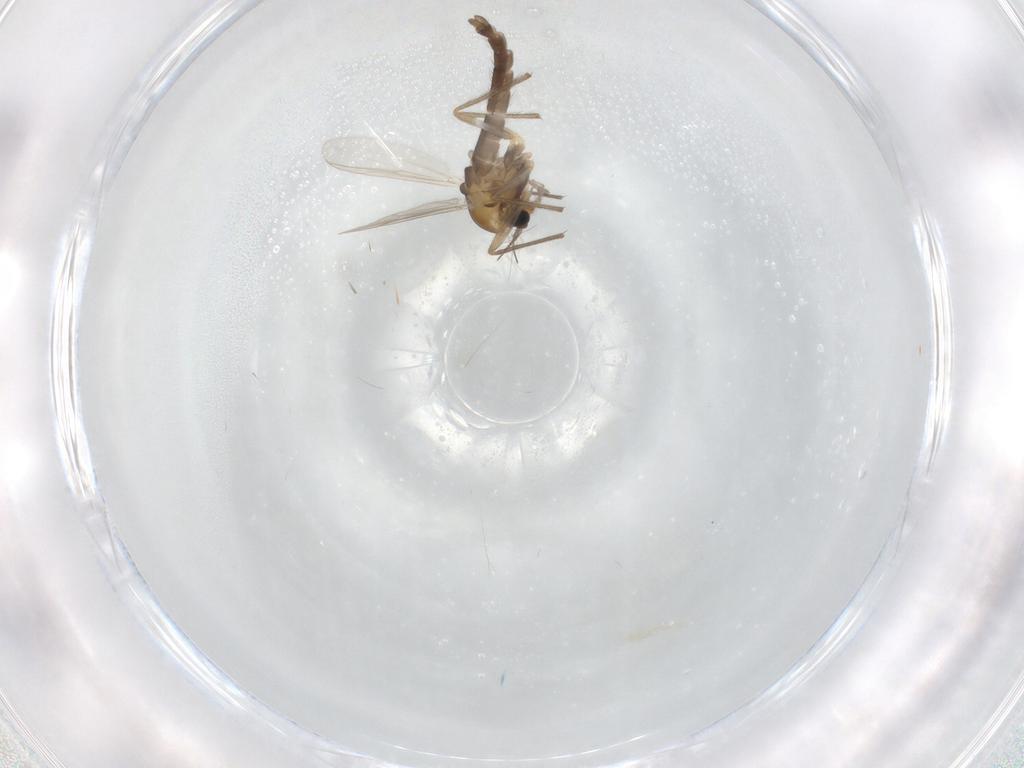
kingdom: Animalia
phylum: Arthropoda
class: Insecta
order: Diptera
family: Chironomidae
